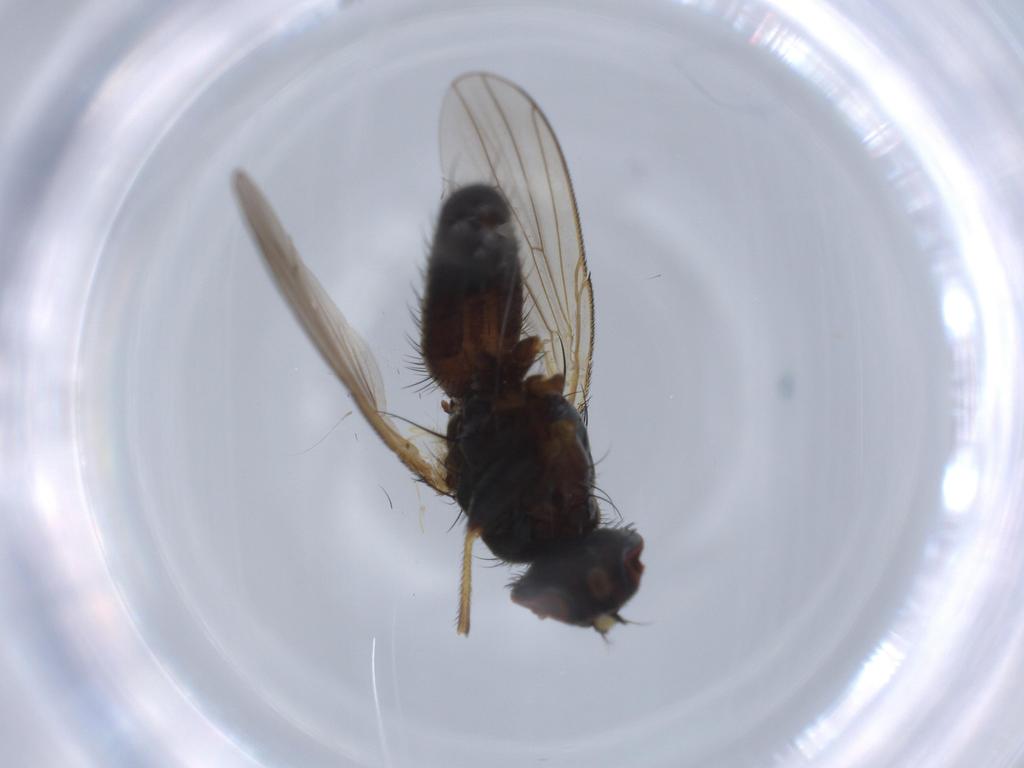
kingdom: Animalia
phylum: Arthropoda
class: Insecta
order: Diptera
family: Muscidae
